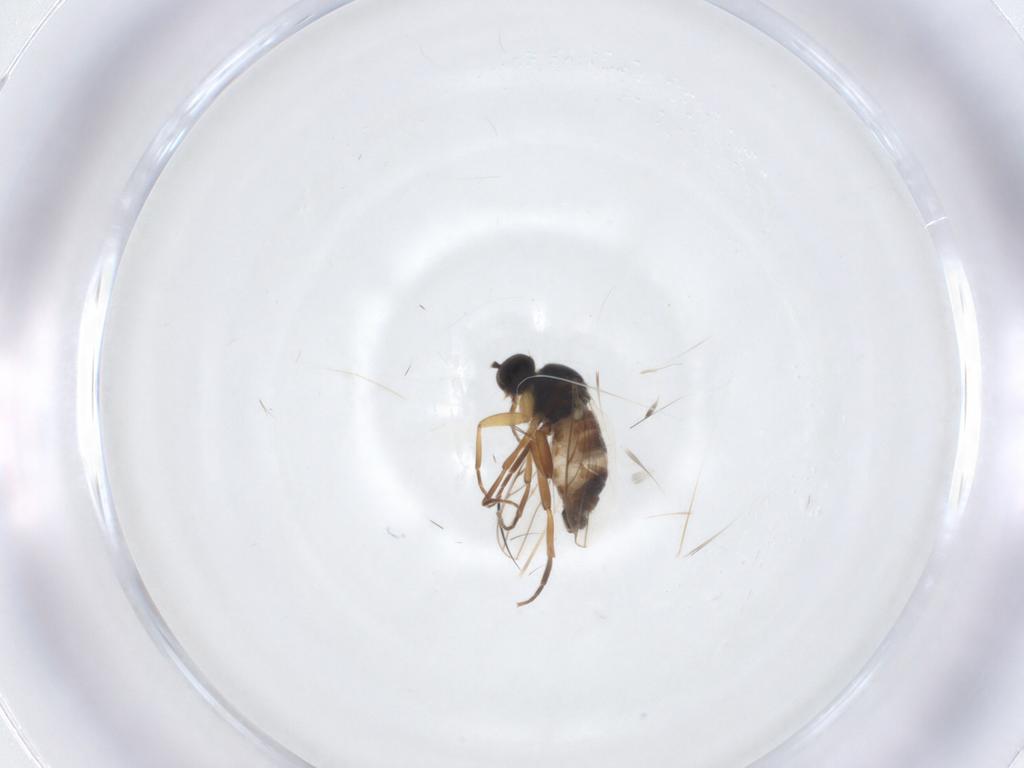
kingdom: Animalia
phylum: Arthropoda
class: Insecta
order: Diptera
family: Hybotidae
